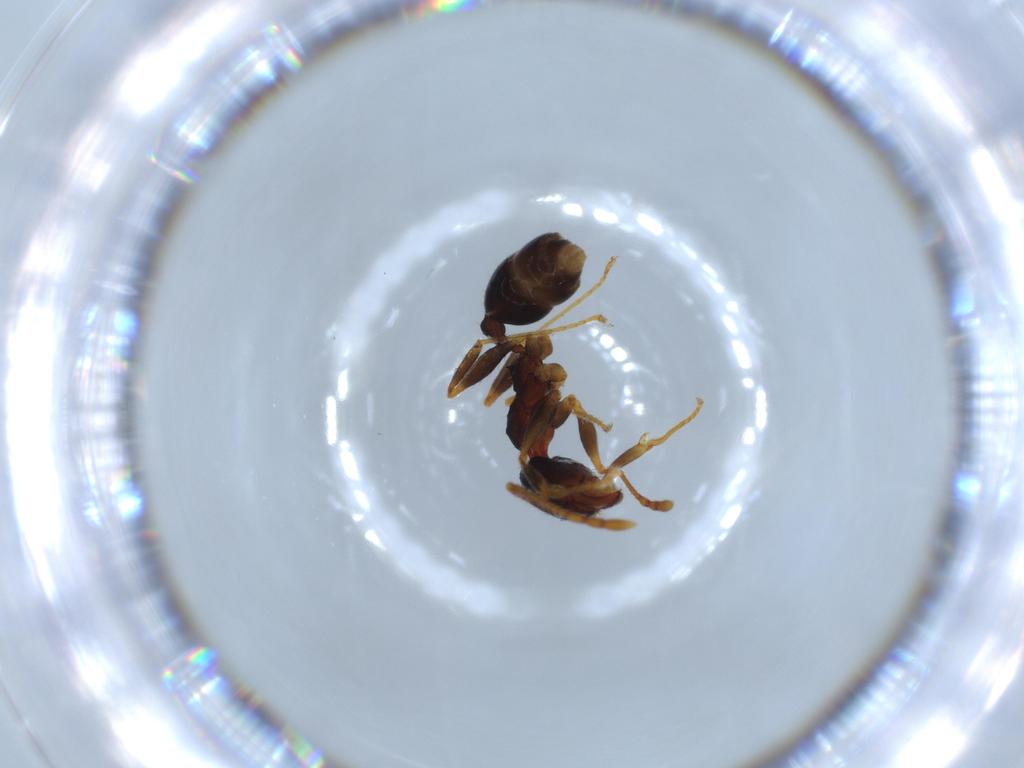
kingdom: Animalia
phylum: Arthropoda
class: Insecta
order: Hymenoptera
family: Formicidae
